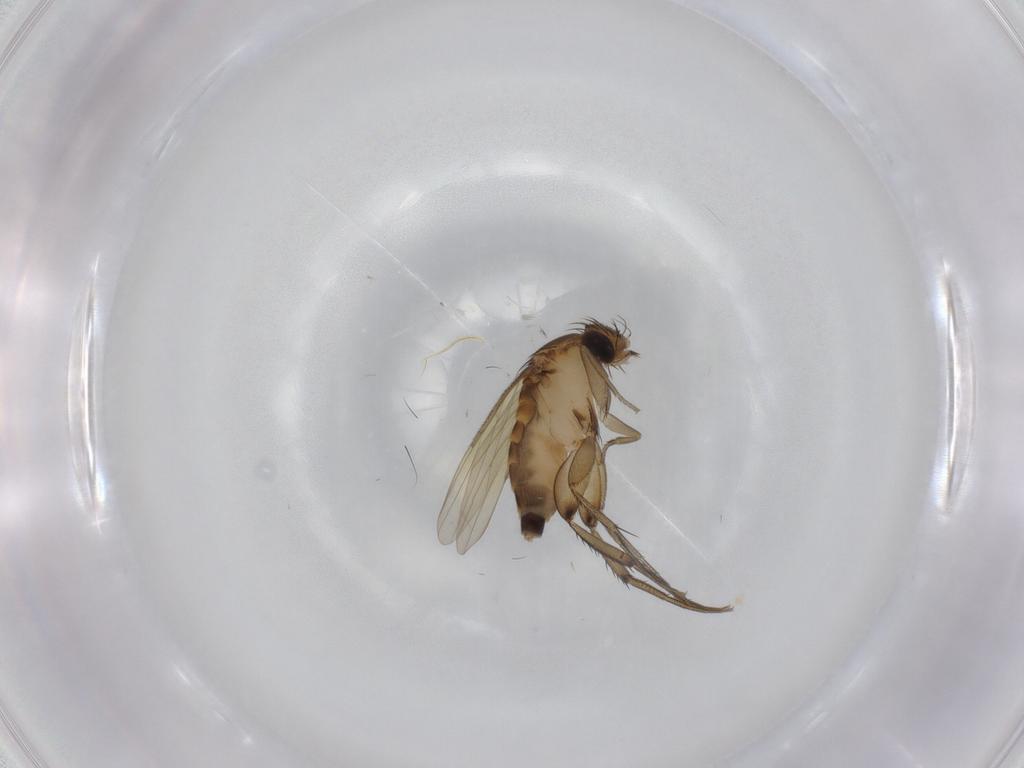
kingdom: Animalia
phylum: Arthropoda
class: Insecta
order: Diptera
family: Phoridae
